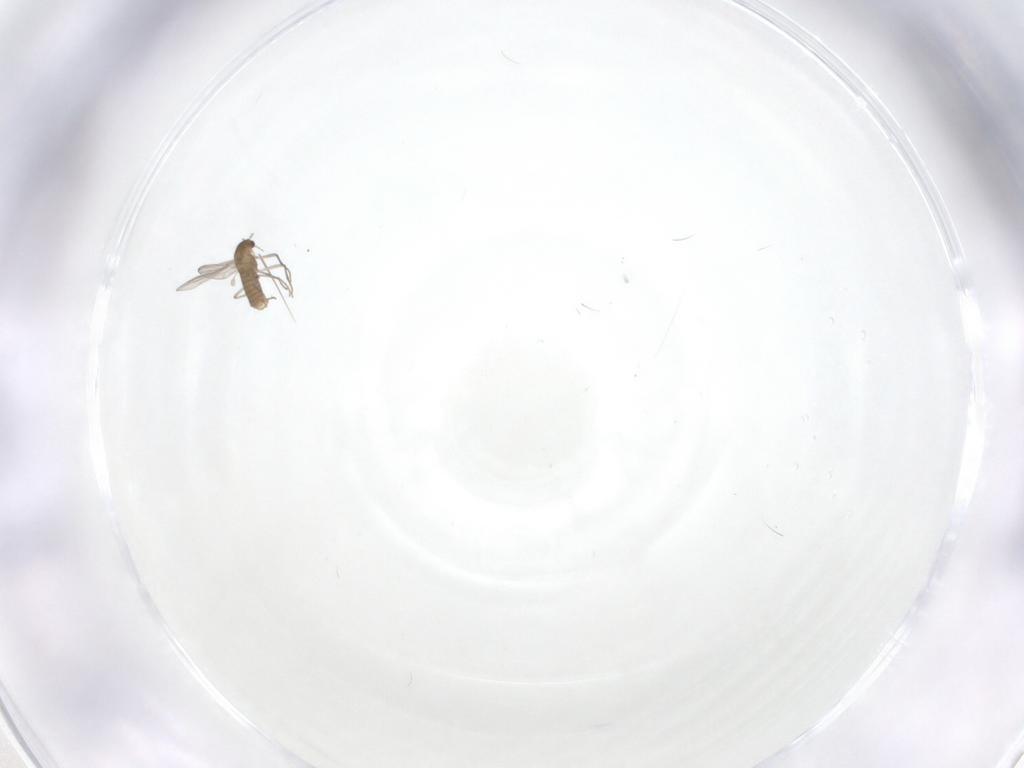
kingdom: Animalia
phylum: Arthropoda
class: Insecta
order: Diptera
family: Chironomidae
